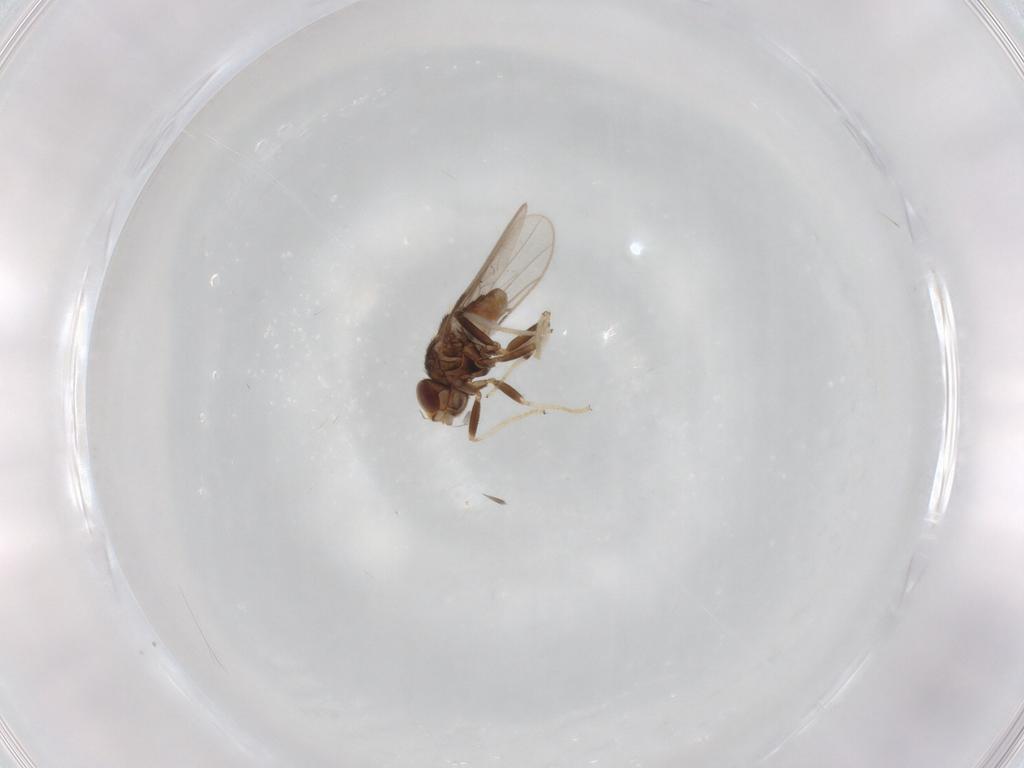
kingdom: Animalia
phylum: Arthropoda
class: Insecta
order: Diptera
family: Chloropidae
